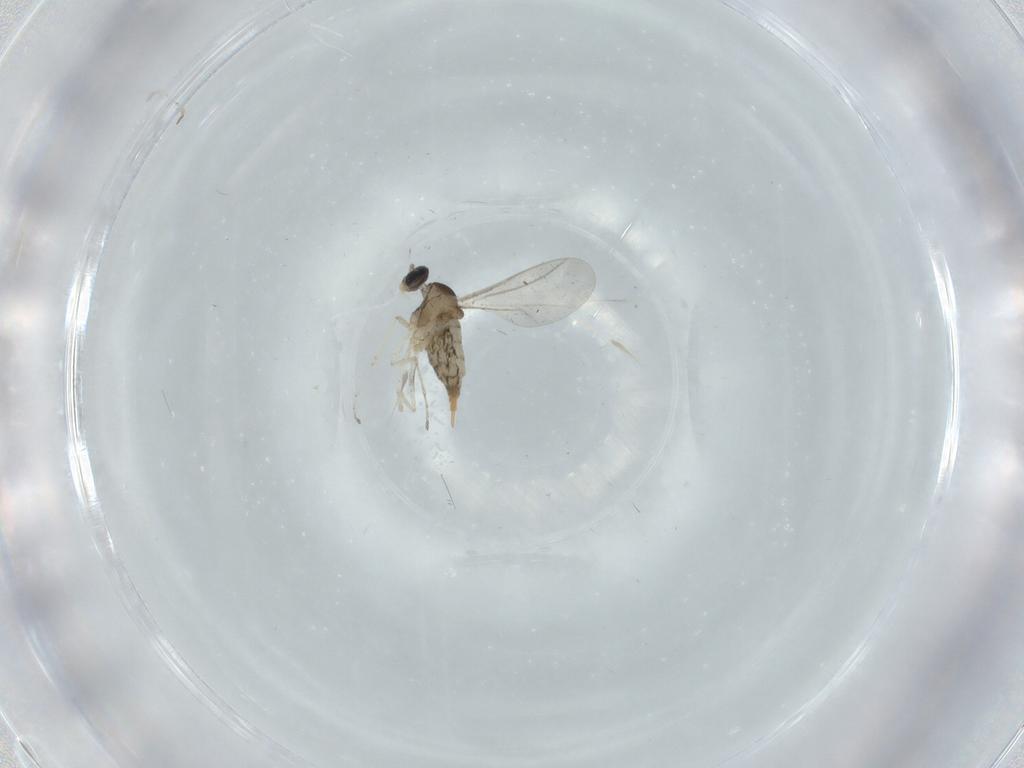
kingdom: Animalia
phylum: Arthropoda
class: Insecta
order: Diptera
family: Cecidomyiidae
